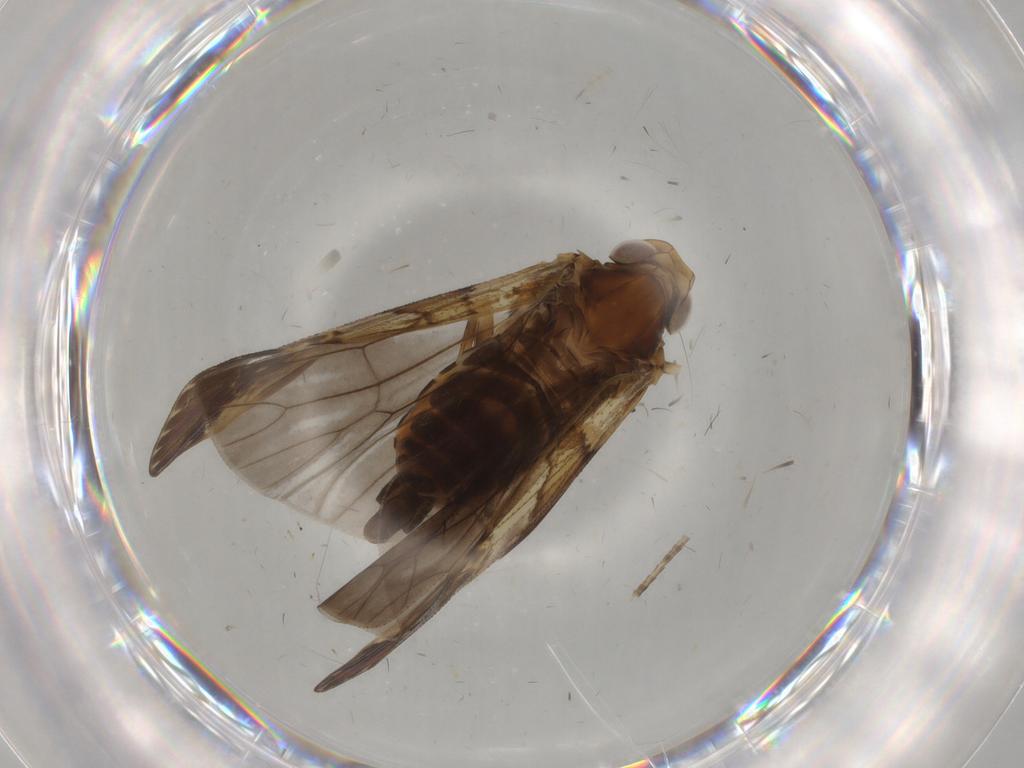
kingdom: Animalia
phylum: Arthropoda
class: Insecta
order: Hemiptera
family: Cixiidae
